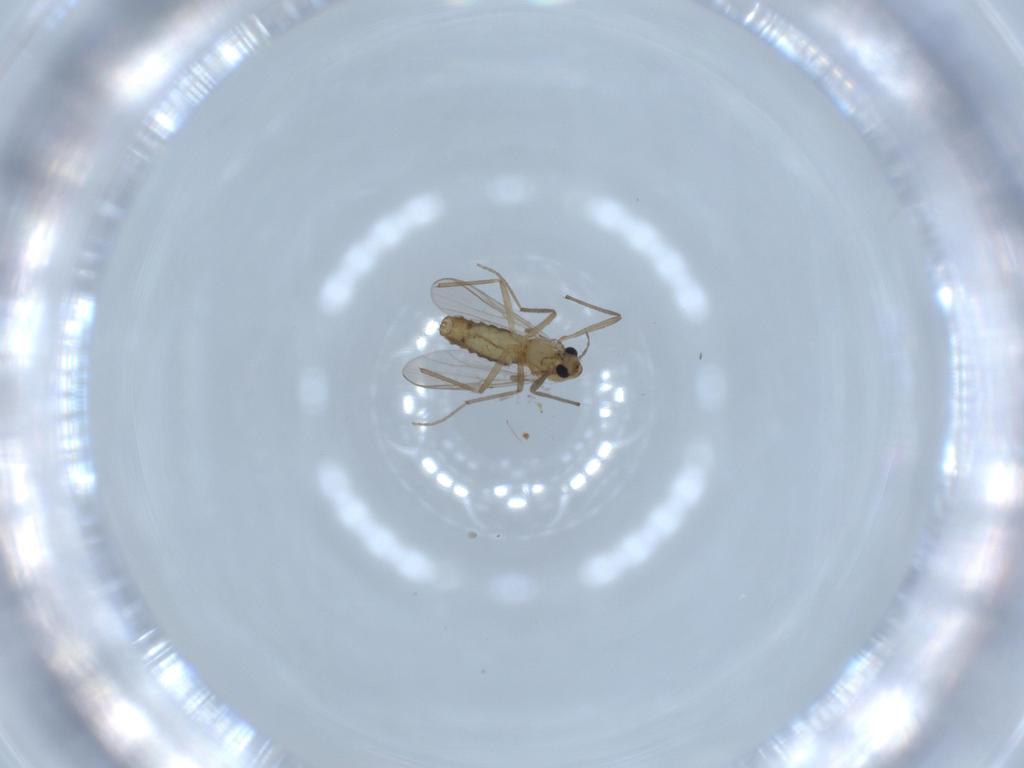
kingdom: Animalia
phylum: Arthropoda
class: Insecta
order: Diptera
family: Chironomidae
